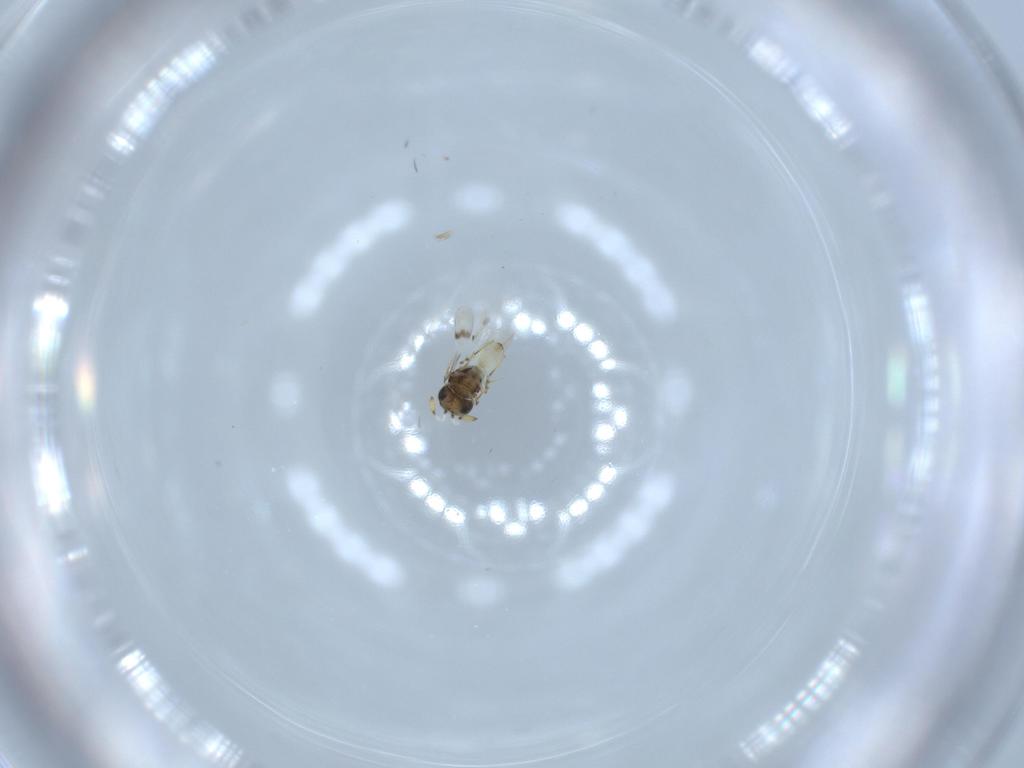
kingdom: Animalia
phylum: Arthropoda
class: Insecta
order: Hymenoptera
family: Scelionidae
